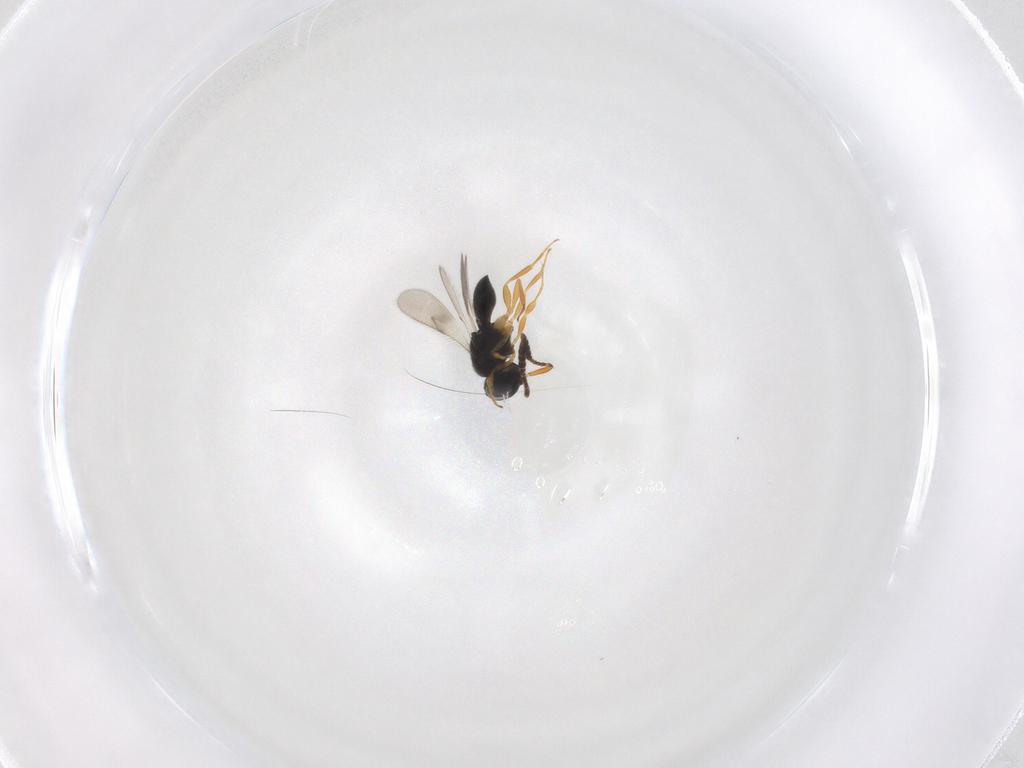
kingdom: Animalia
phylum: Arthropoda
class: Insecta
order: Hymenoptera
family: Scelionidae
